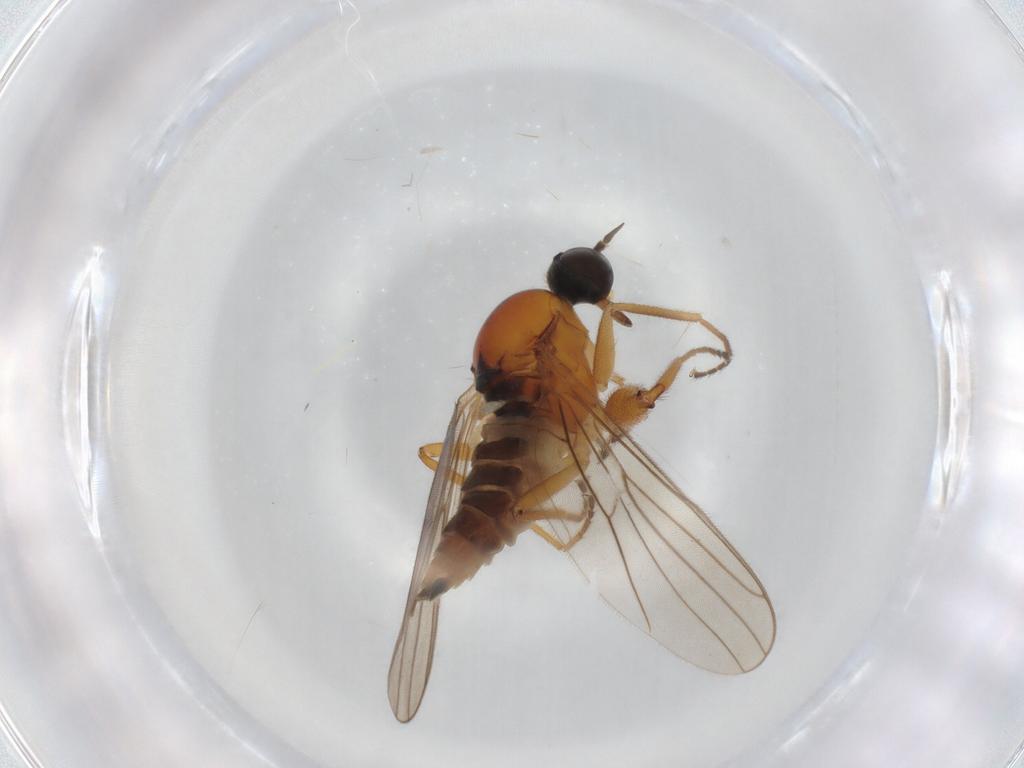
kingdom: Animalia
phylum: Arthropoda
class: Insecta
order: Diptera
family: Hybotidae
